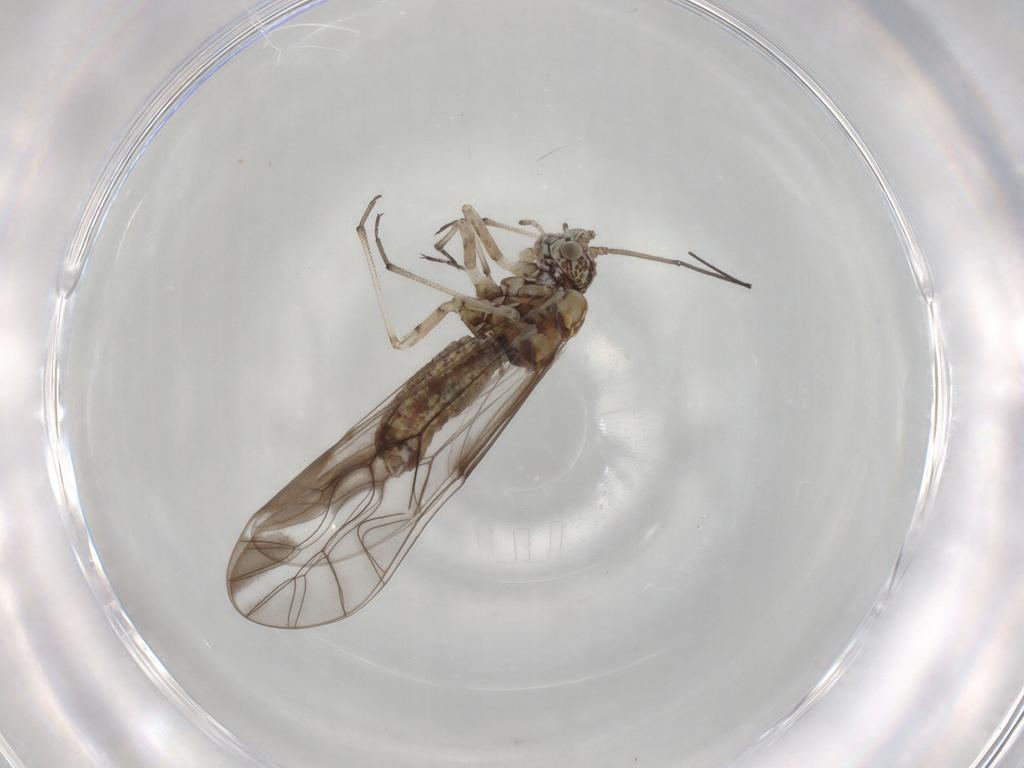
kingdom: Animalia
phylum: Arthropoda
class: Insecta
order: Psocodea
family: Psocidae
